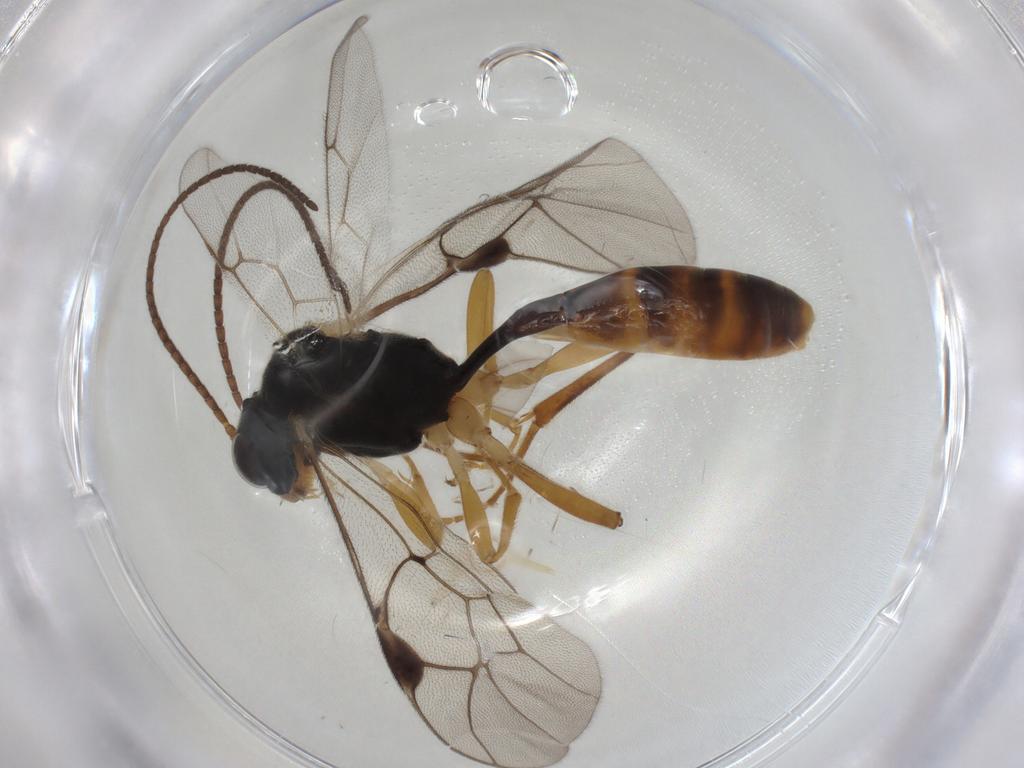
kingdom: Animalia
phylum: Arthropoda
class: Insecta
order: Hymenoptera
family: Ichneumonidae
